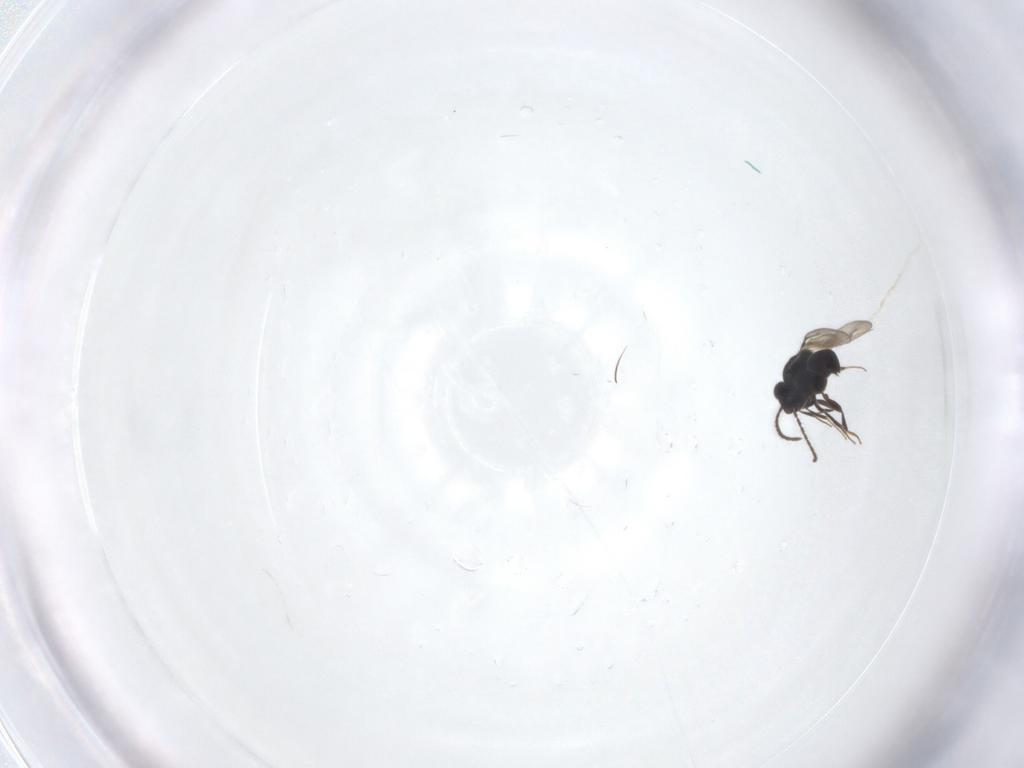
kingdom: Animalia
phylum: Arthropoda
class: Insecta
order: Hymenoptera
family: Ceraphronidae
